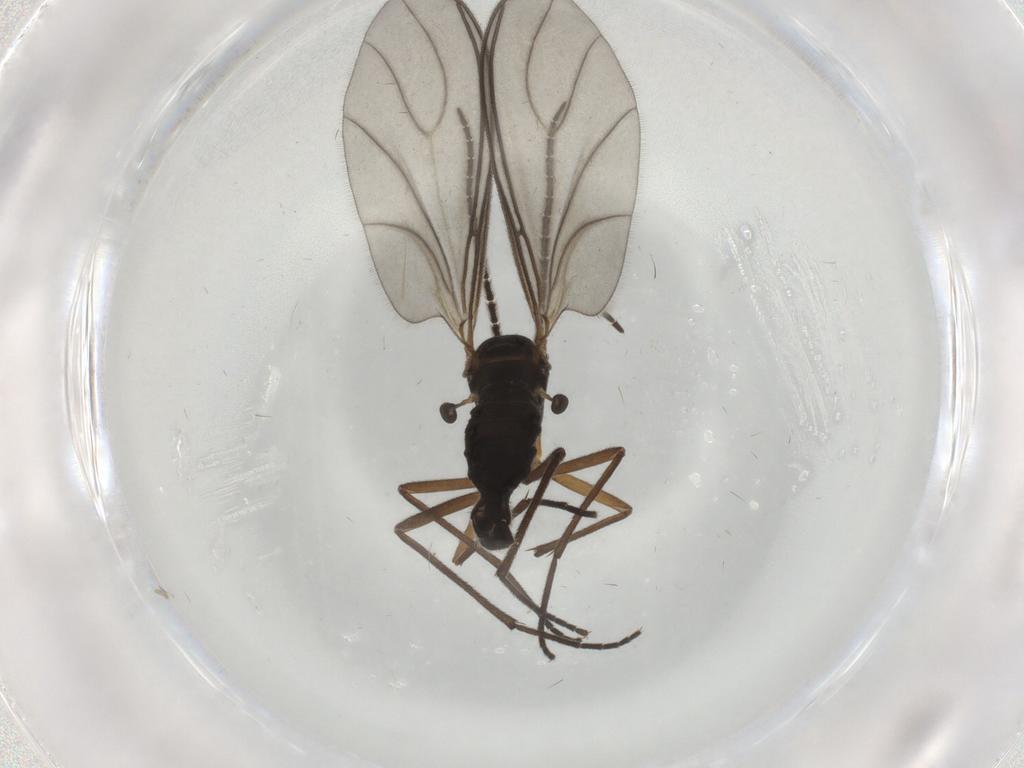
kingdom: Animalia
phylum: Arthropoda
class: Insecta
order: Diptera
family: Sciaridae
